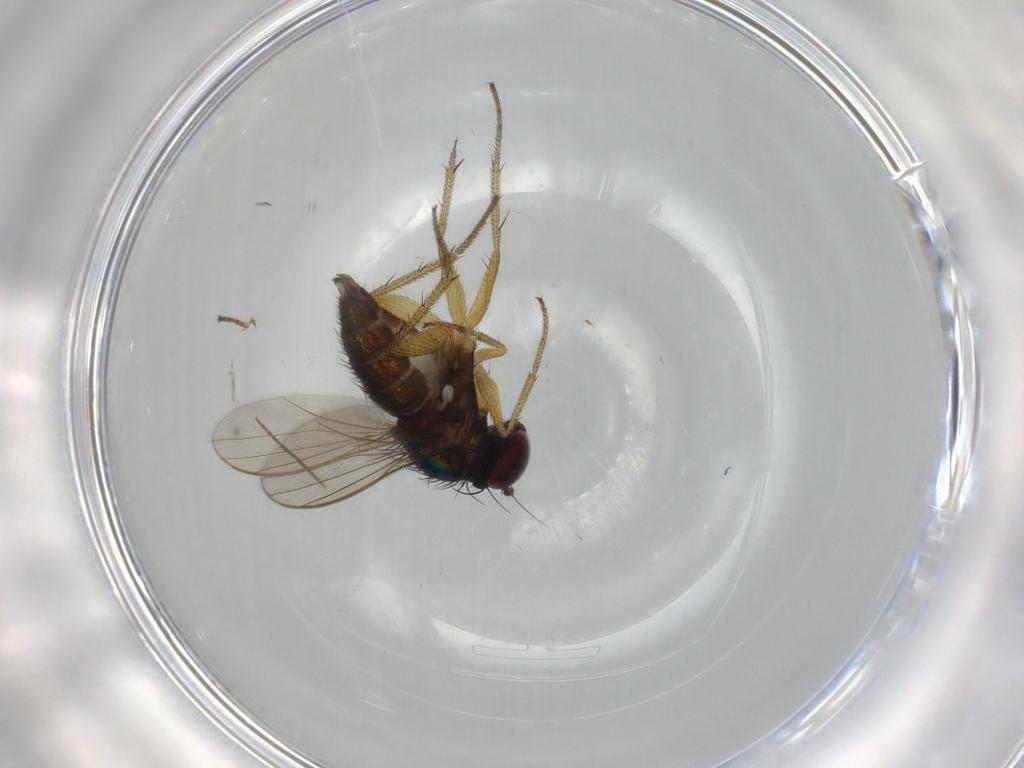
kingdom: Animalia
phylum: Arthropoda
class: Insecta
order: Diptera
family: Dolichopodidae
